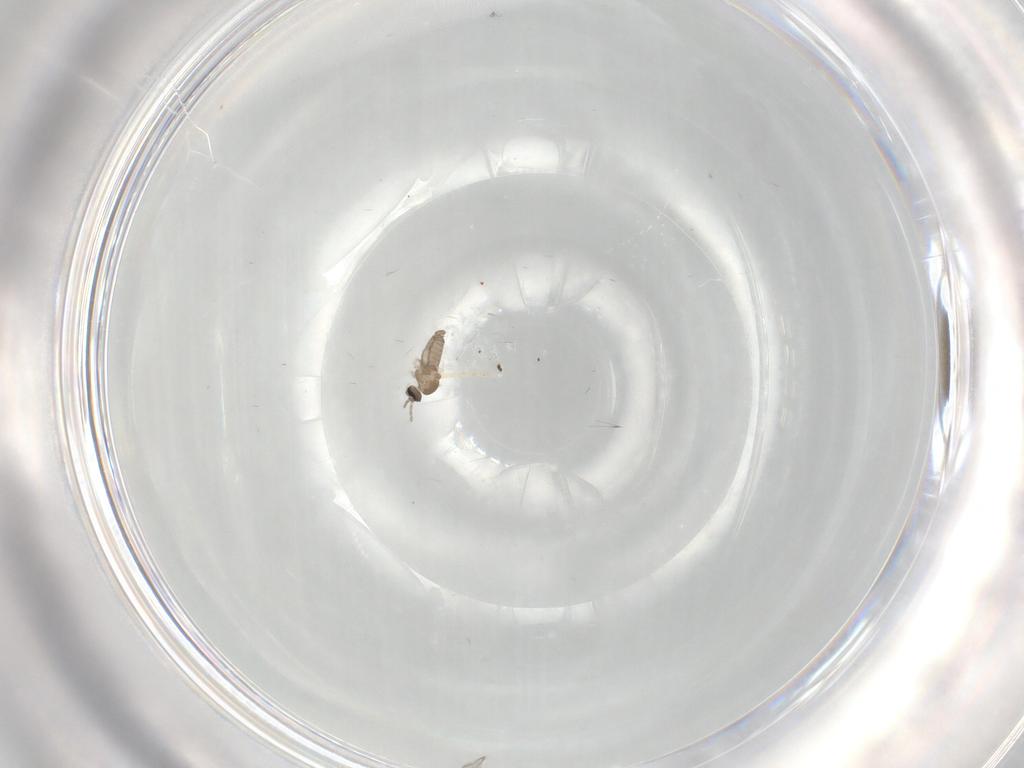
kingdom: Animalia
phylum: Arthropoda
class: Insecta
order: Diptera
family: Cecidomyiidae
